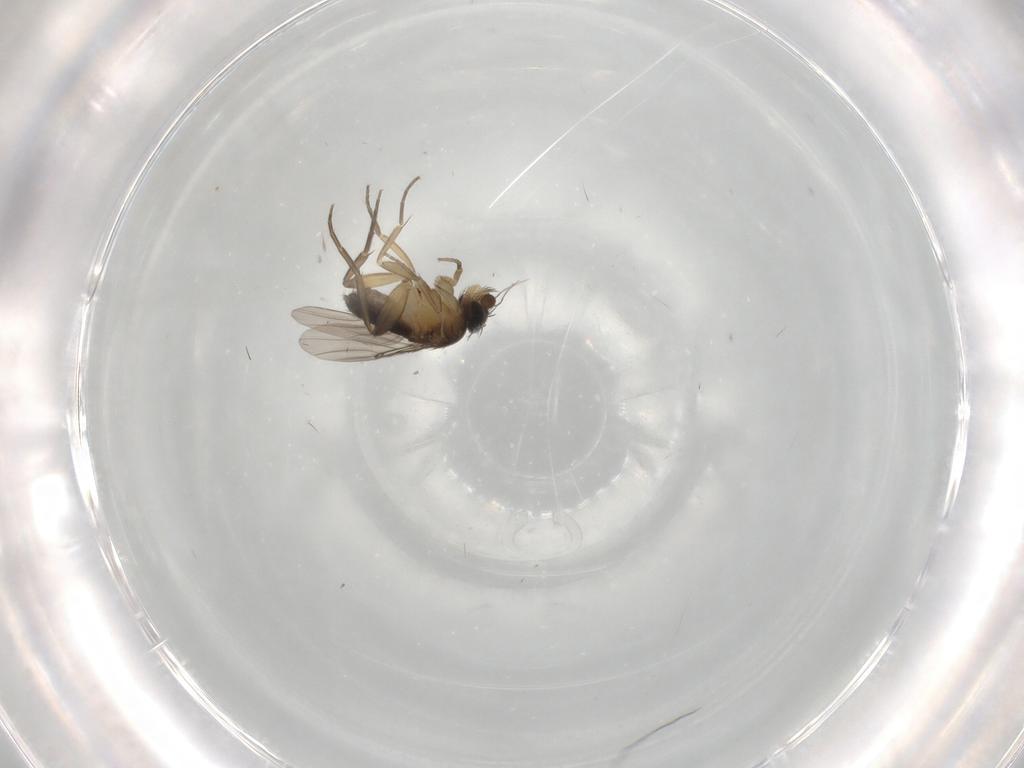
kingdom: Animalia
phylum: Arthropoda
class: Insecta
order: Diptera
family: Phoridae
